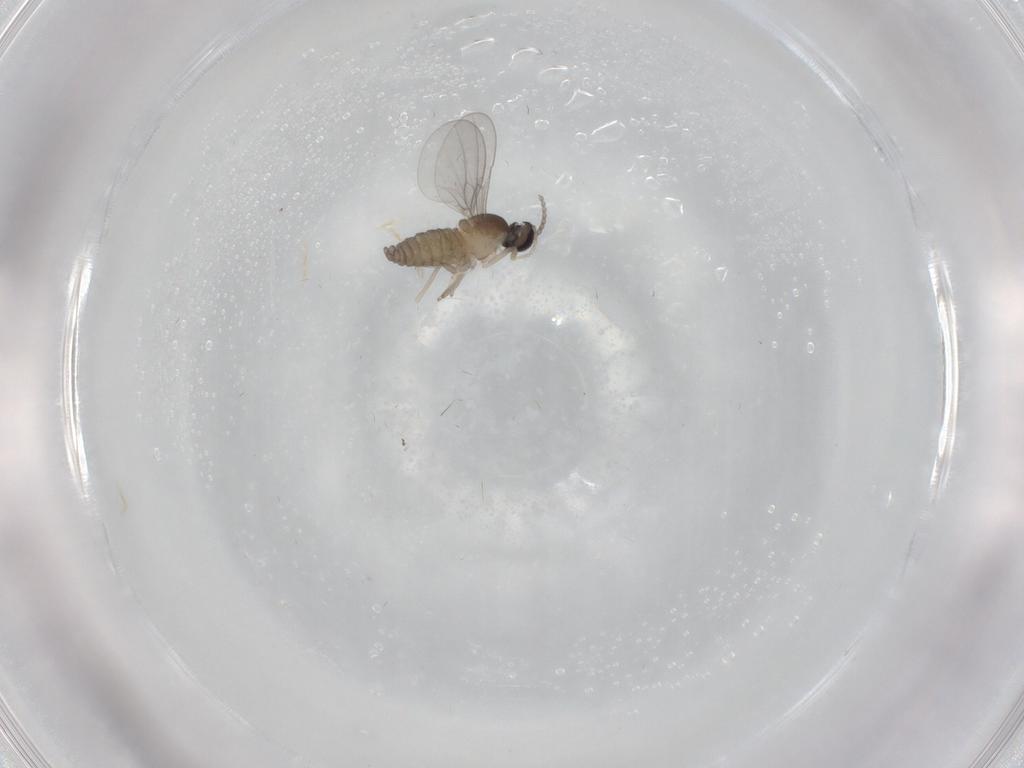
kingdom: Animalia
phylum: Arthropoda
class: Insecta
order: Diptera
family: Cecidomyiidae
